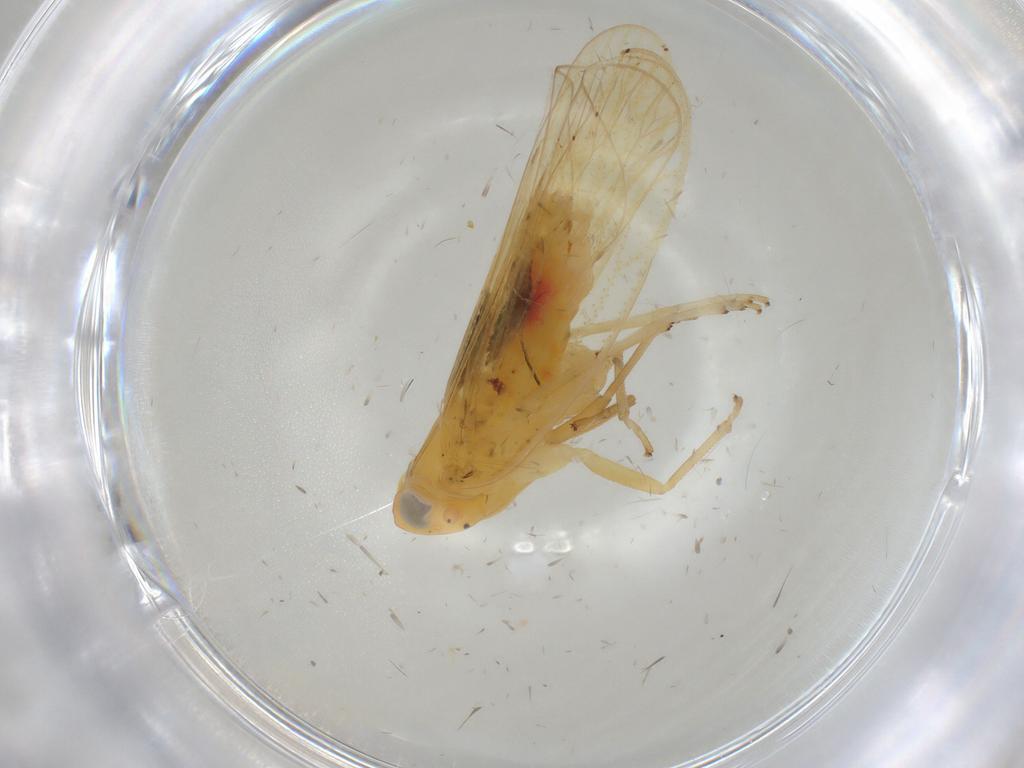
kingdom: Animalia
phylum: Arthropoda
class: Insecta
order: Hemiptera
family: Cixiidae
